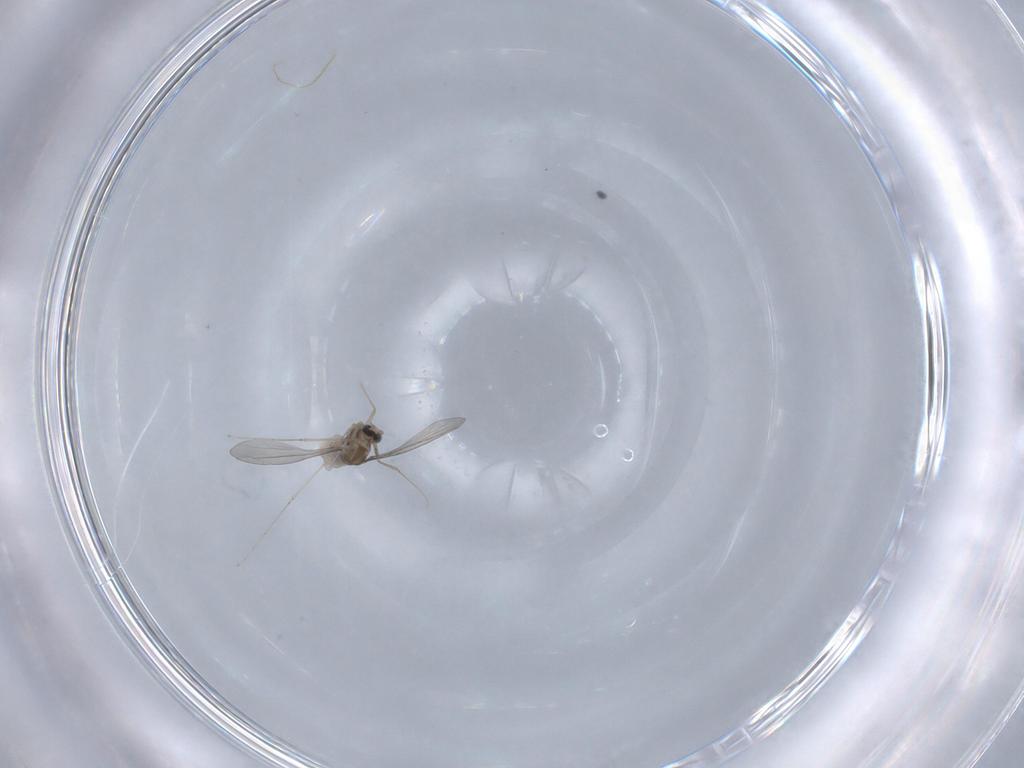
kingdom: Animalia
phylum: Arthropoda
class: Insecta
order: Diptera
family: Cecidomyiidae
